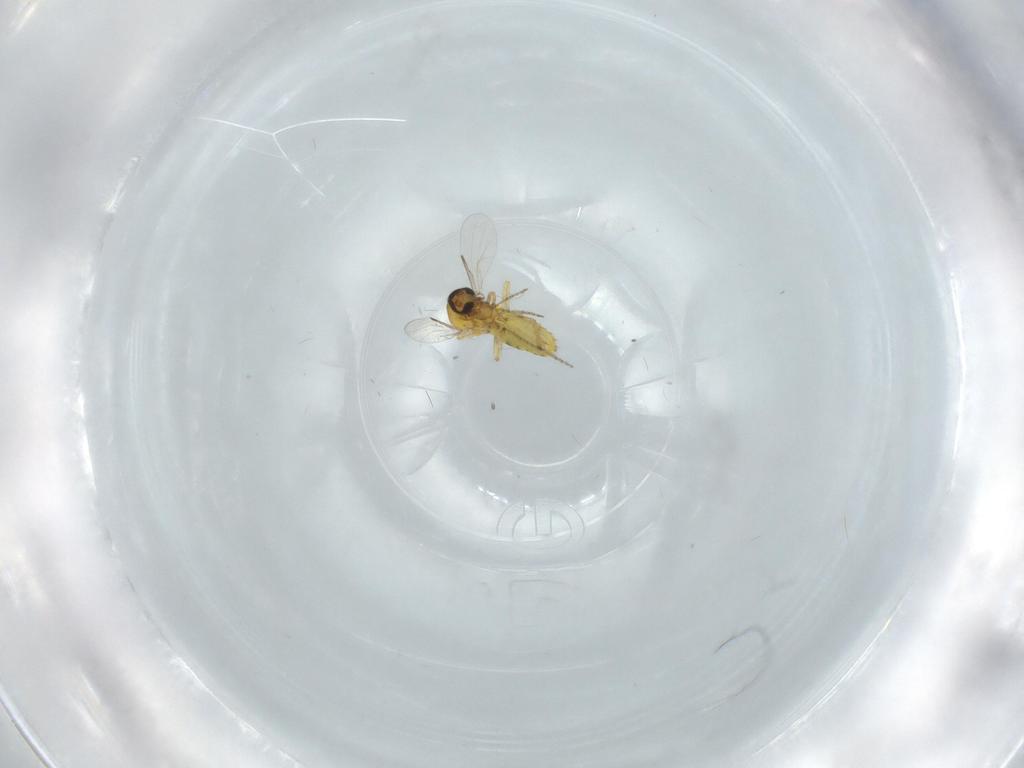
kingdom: Animalia
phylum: Arthropoda
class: Insecta
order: Diptera
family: Ceratopogonidae
